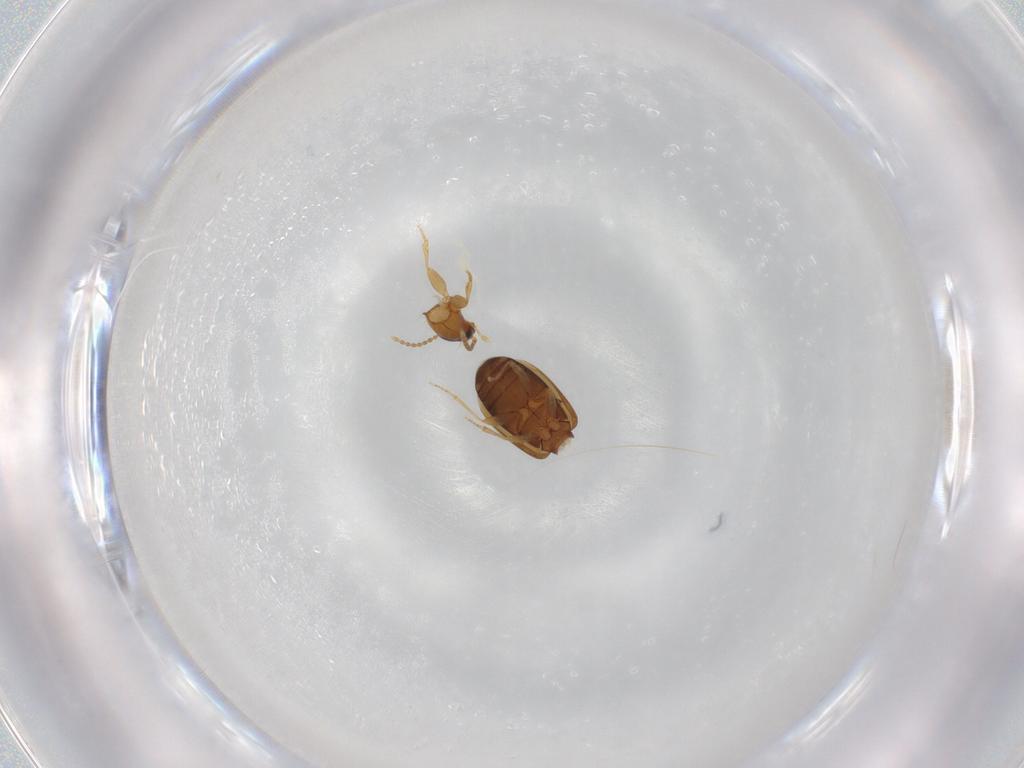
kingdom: Animalia
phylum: Arthropoda
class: Insecta
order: Coleoptera
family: Carabidae
